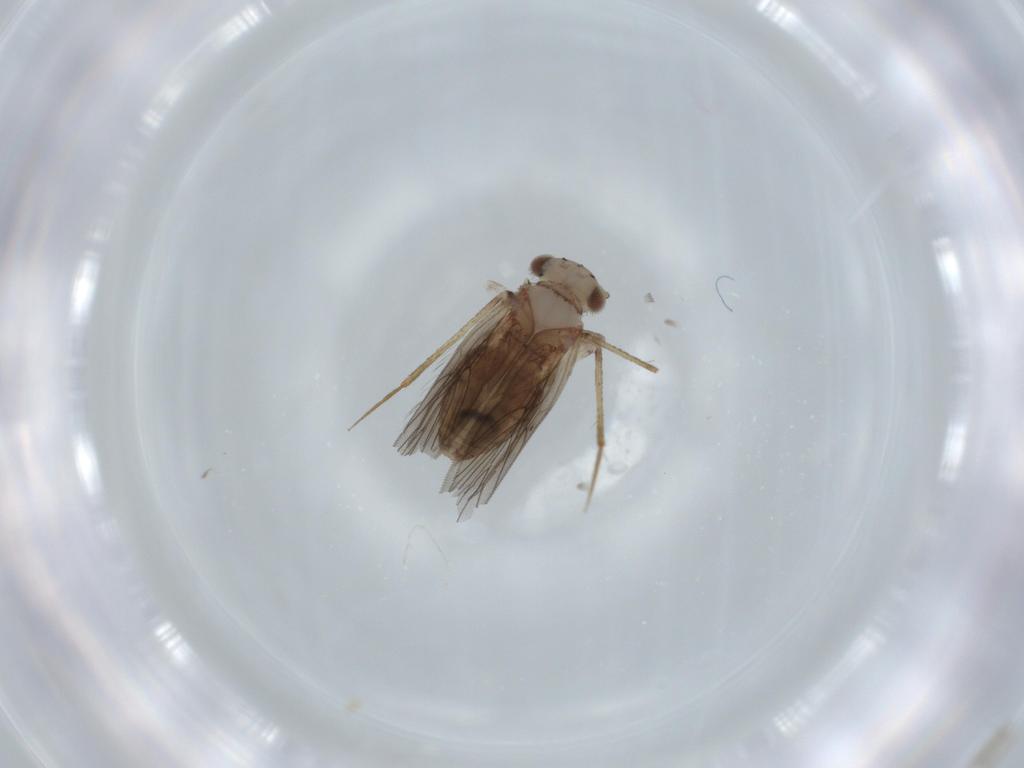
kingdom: Animalia
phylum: Arthropoda
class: Insecta
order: Psocodea
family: Lepidopsocidae
